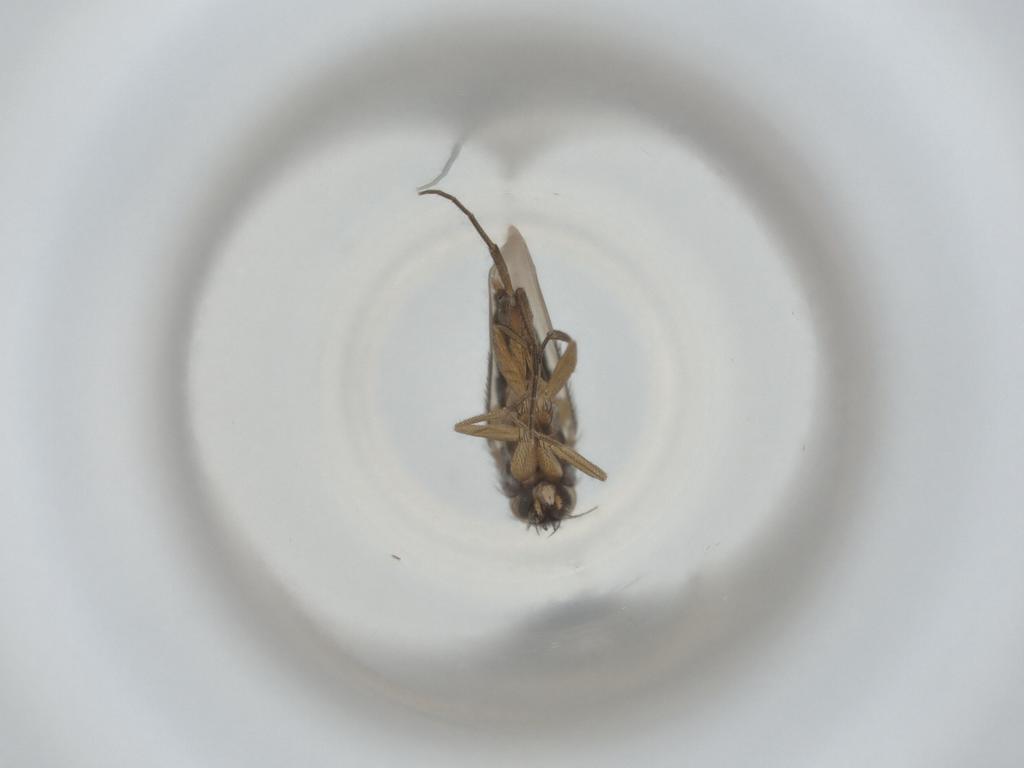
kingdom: Animalia
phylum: Arthropoda
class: Insecta
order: Diptera
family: Phoridae
